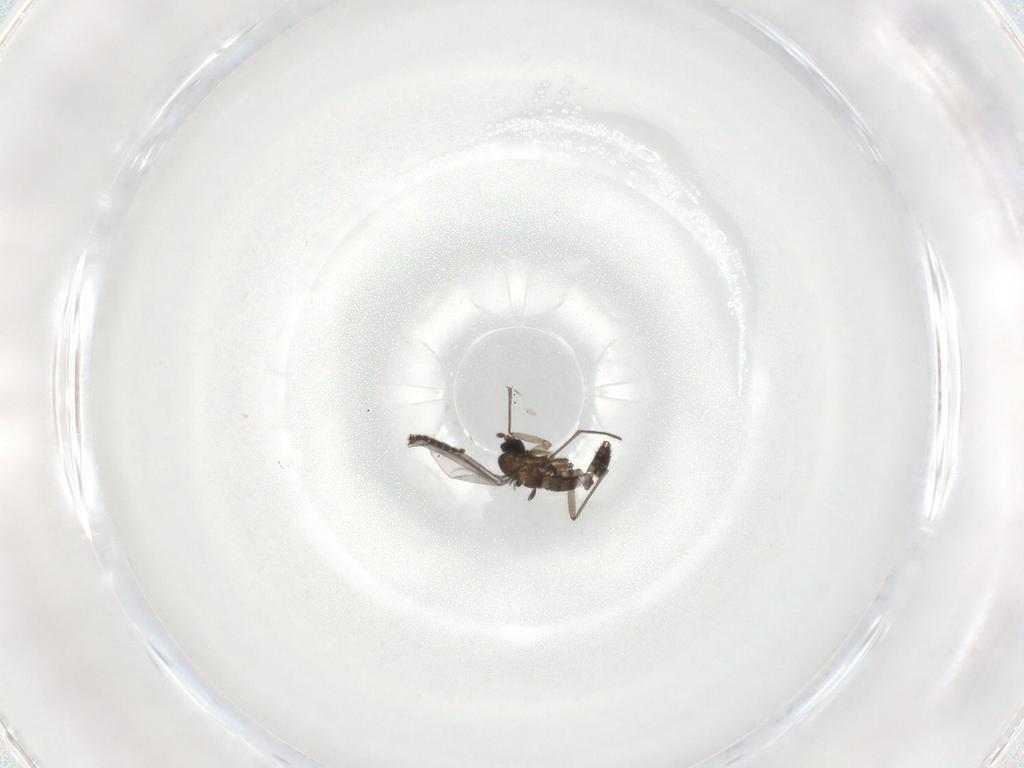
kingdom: Animalia
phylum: Arthropoda
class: Insecta
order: Diptera
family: Sciaridae
